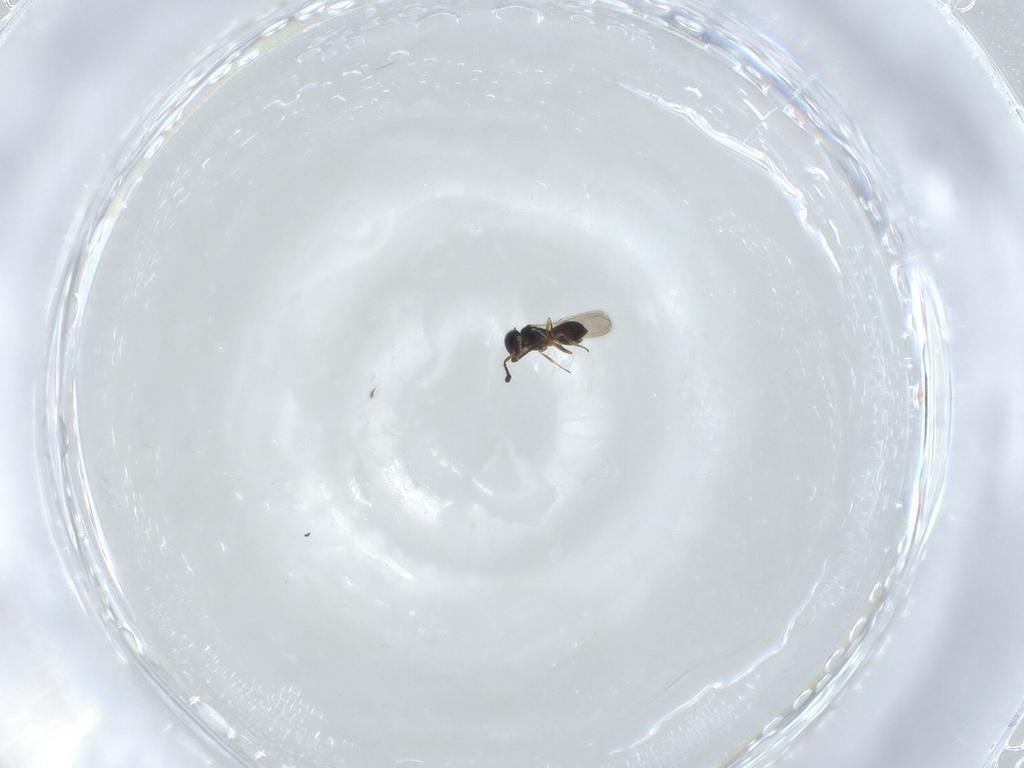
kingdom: Animalia
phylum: Arthropoda
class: Insecta
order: Hymenoptera
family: Scelionidae
